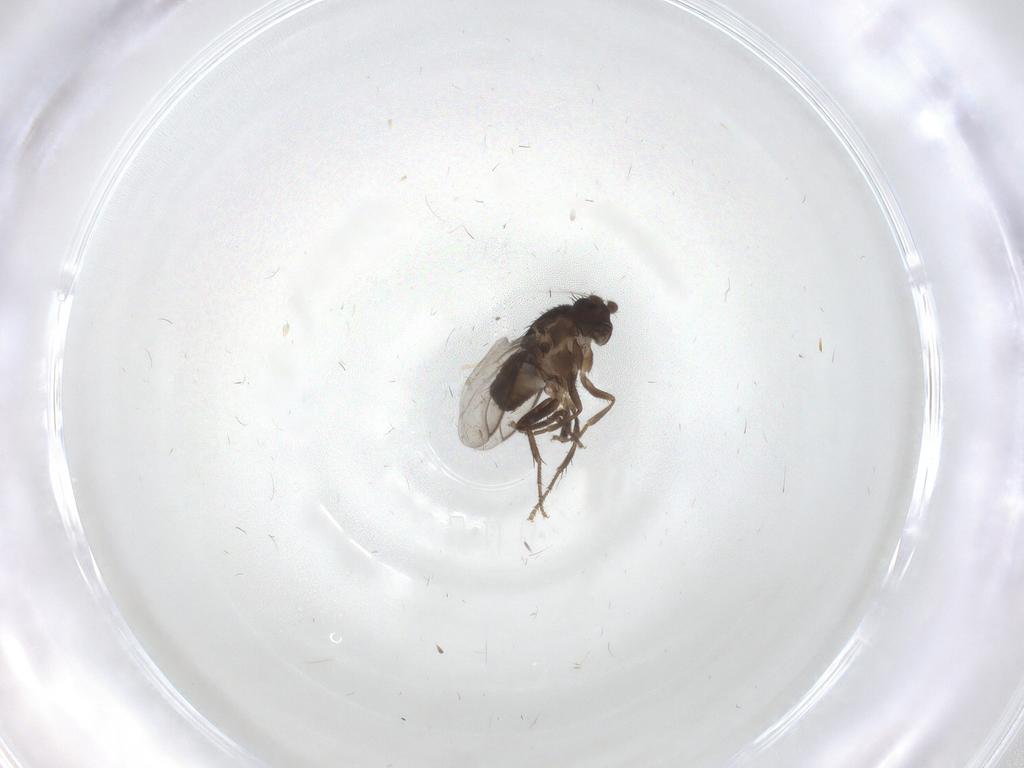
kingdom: Animalia
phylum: Arthropoda
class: Insecta
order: Diptera
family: Sphaeroceridae
